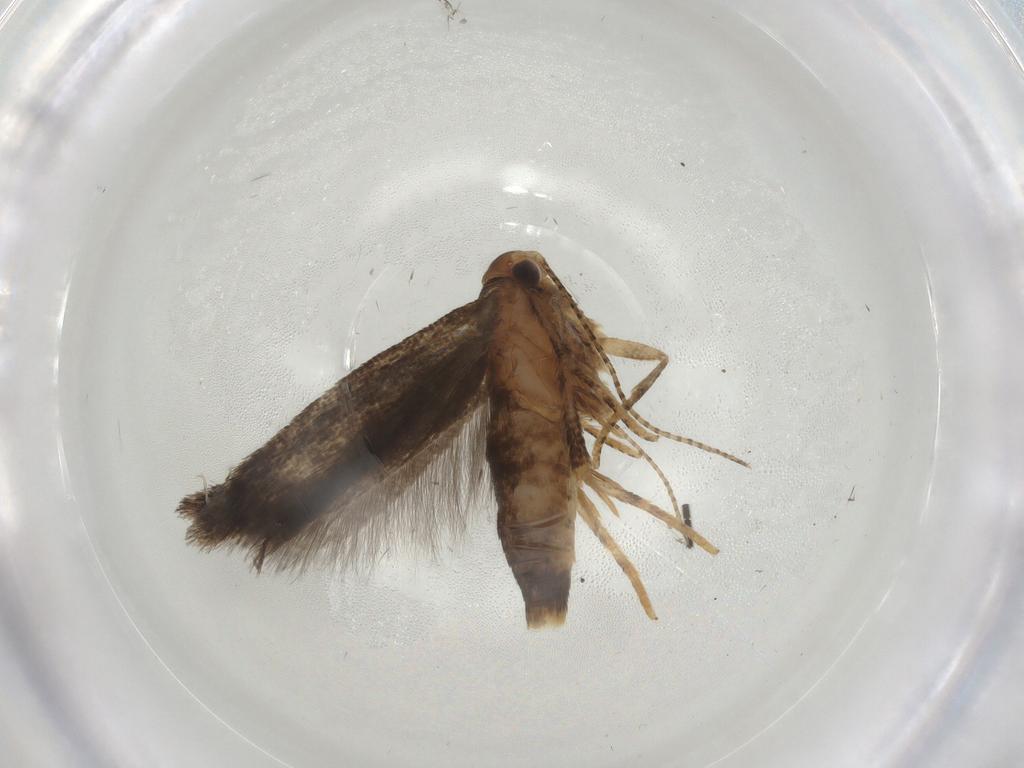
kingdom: Animalia
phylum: Arthropoda
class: Insecta
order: Lepidoptera
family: Gelechiidae
